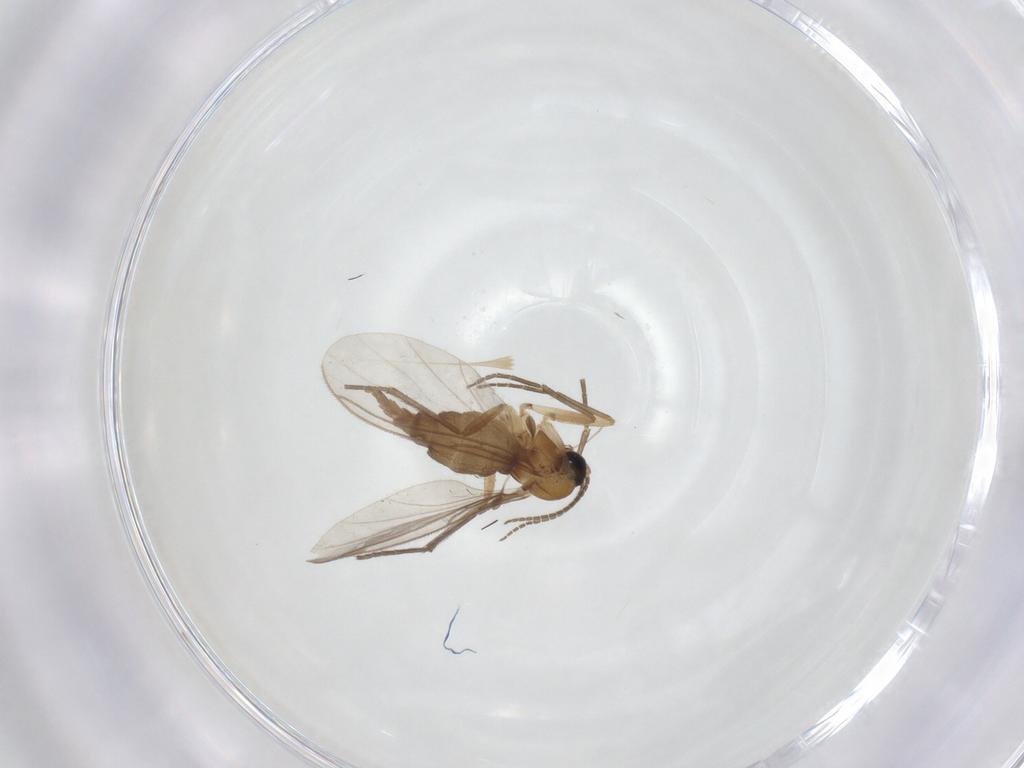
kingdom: Animalia
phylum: Arthropoda
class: Insecta
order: Diptera
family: Sciaridae
